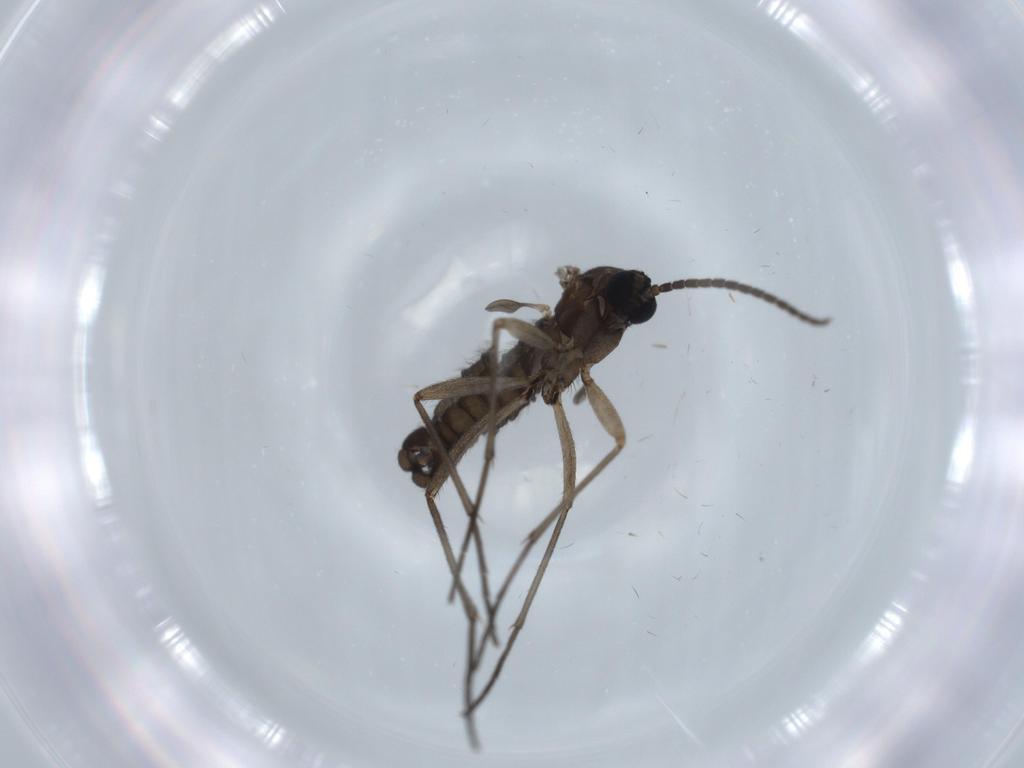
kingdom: Animalia
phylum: Arthropoda
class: Insecta
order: Diptera
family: Sciaridae
